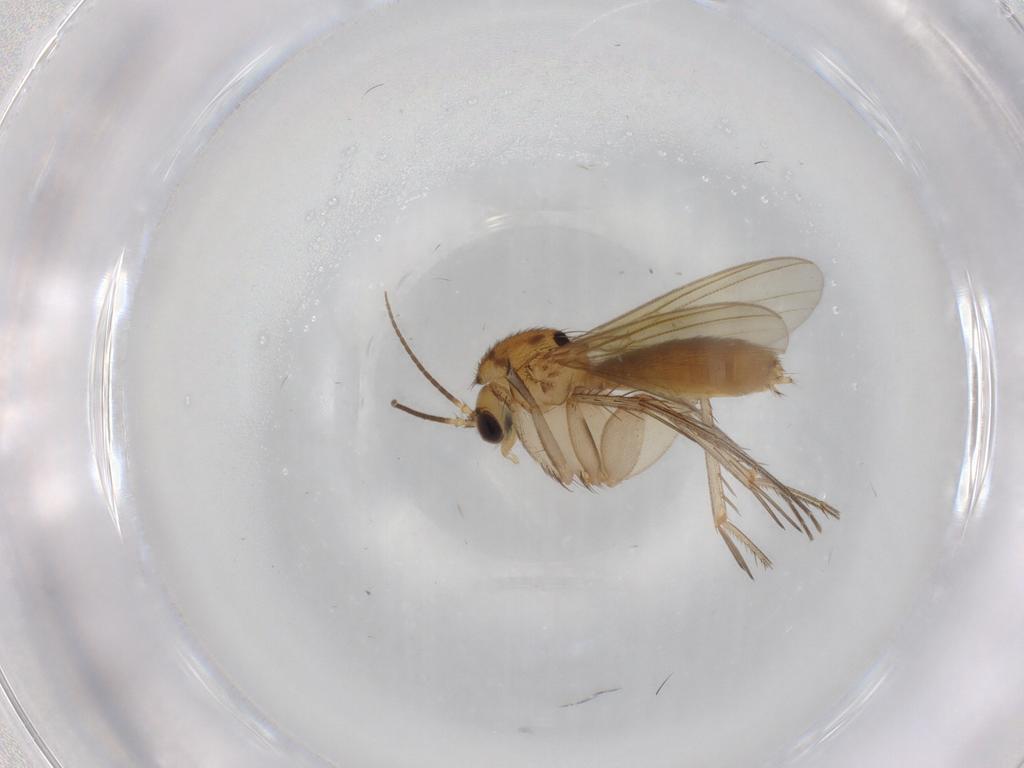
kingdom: Animalia
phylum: Arthropoda
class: Insecta
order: Diptera
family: Mycetophilidae
